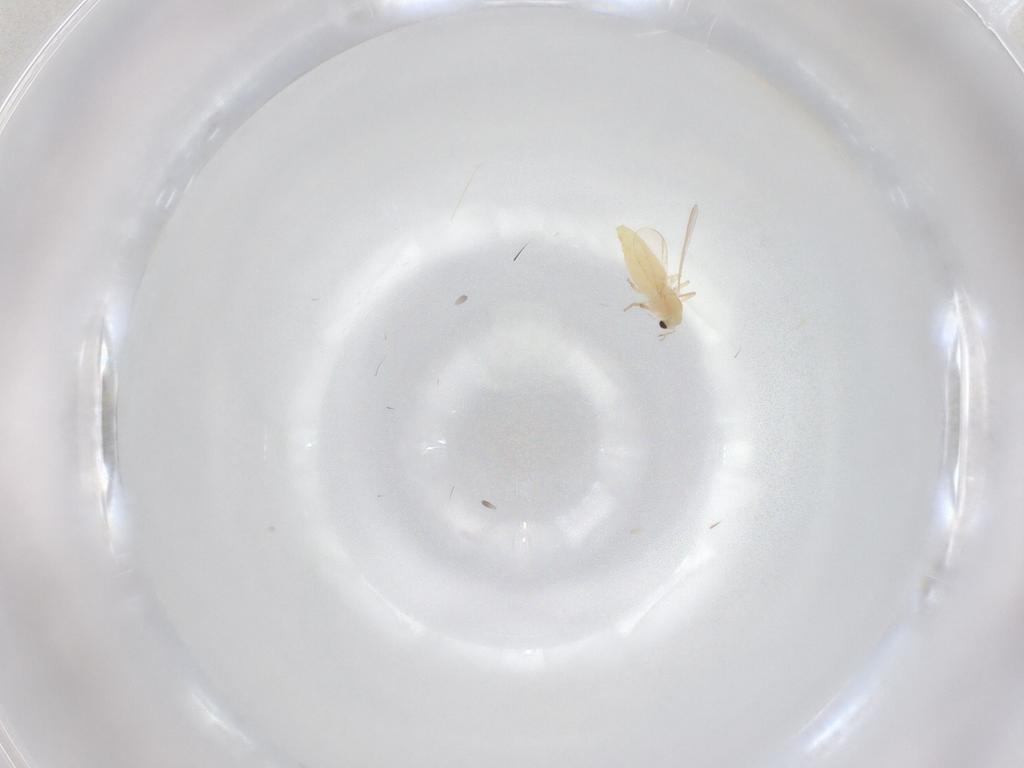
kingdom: Animalia
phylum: Arthropoda
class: Insecta
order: Diptera
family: Chironomidae
